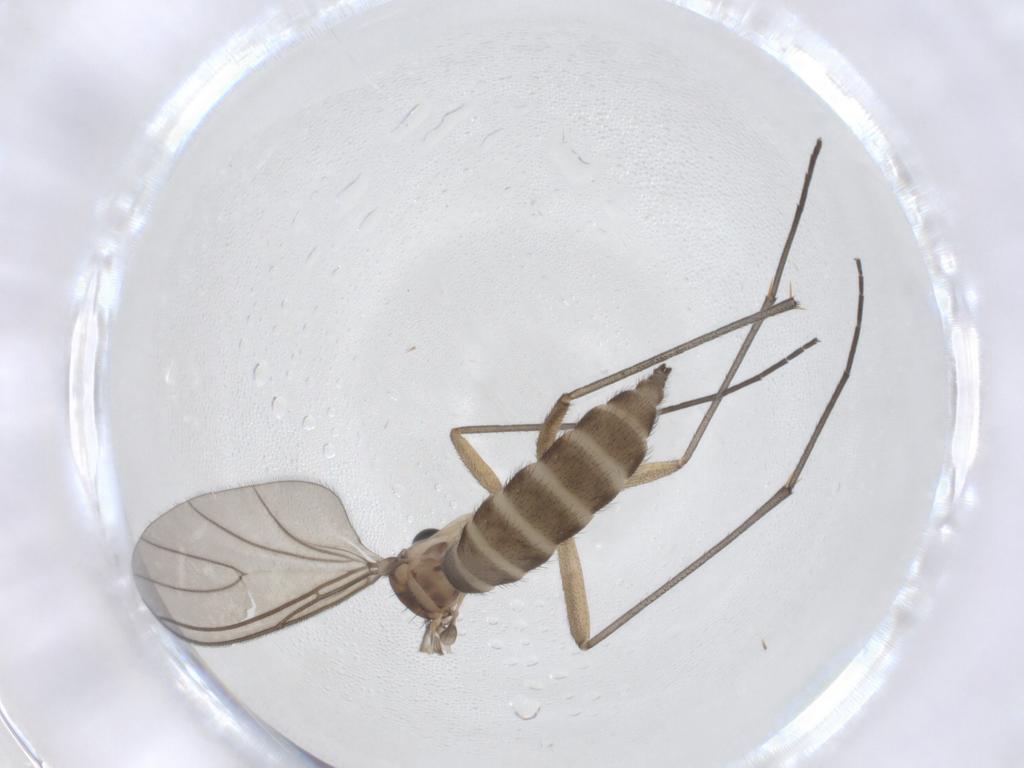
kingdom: Animalia
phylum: Arthropoda
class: Insecta
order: Diptera
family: Sciaridae
